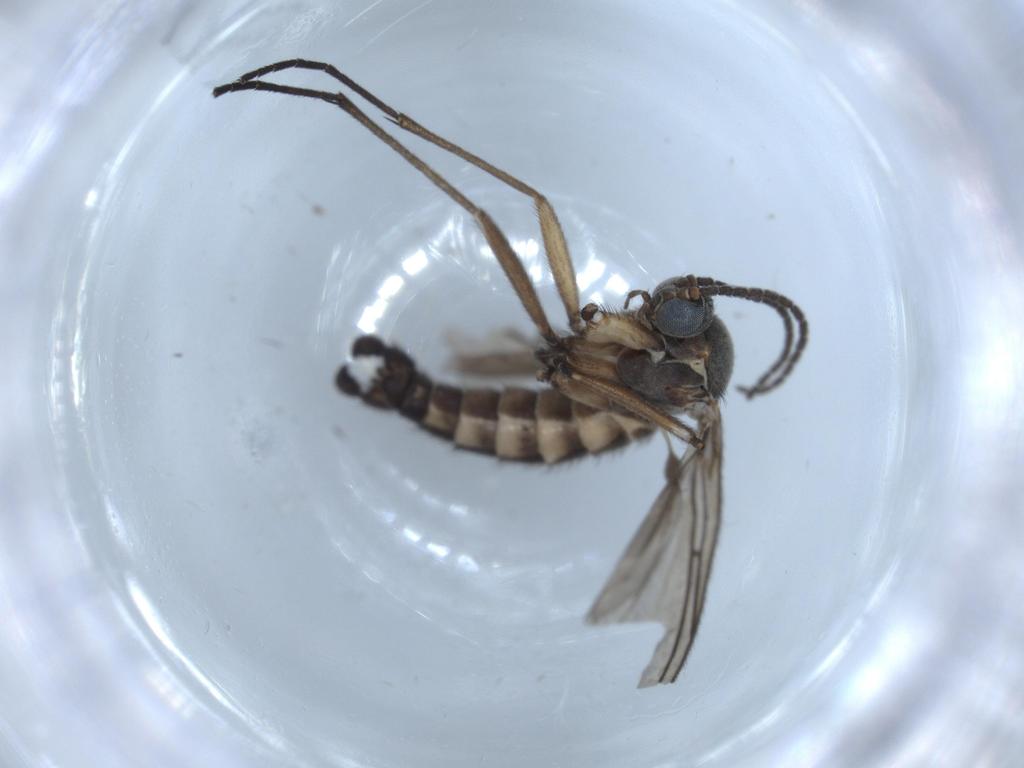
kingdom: Animalia
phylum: Arthropoda
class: Insecta
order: Diptera
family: Sciaridae
